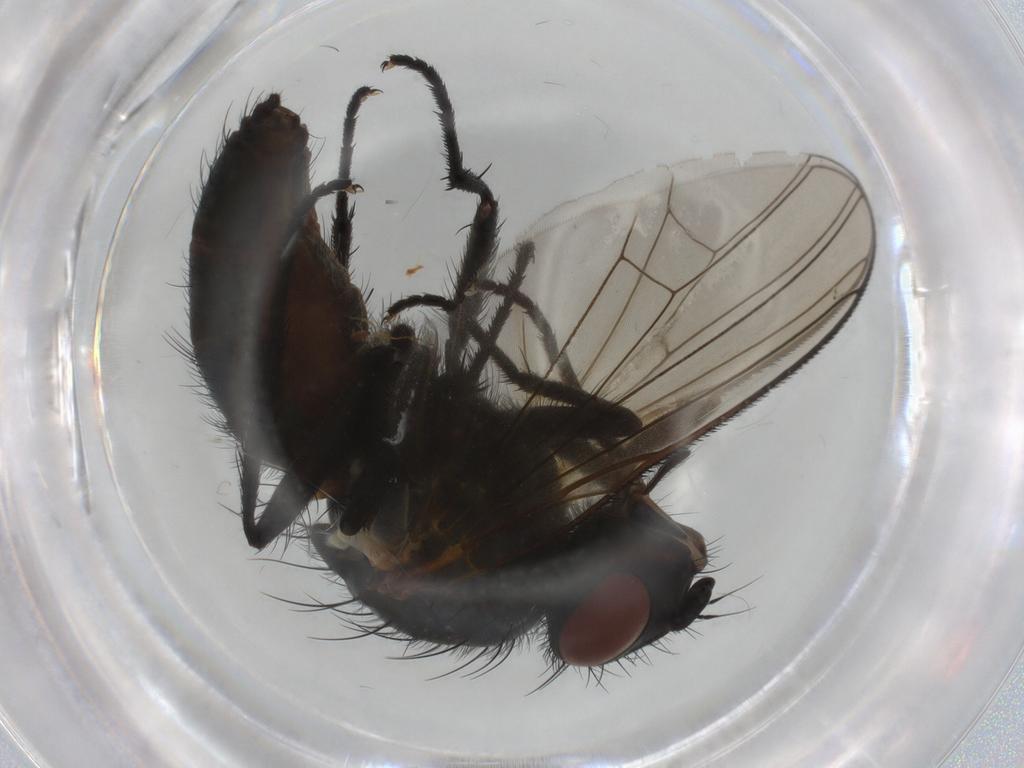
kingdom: Animalia
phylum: Arthropoda
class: Insecta
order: Diptera
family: Anthomyiidae
